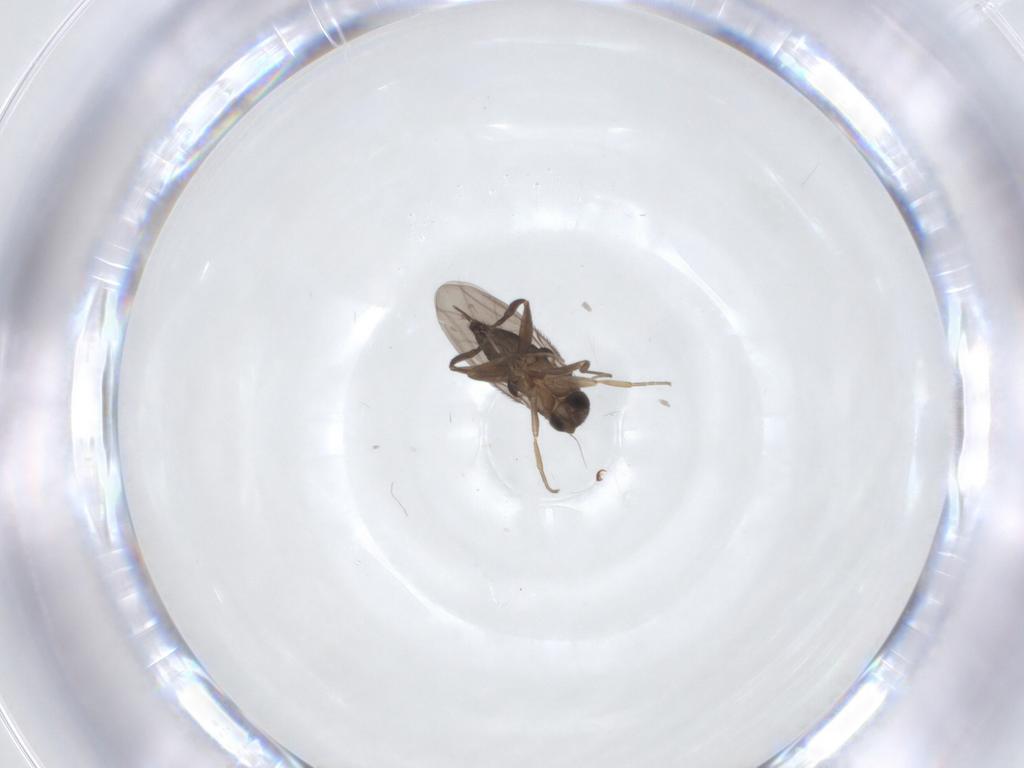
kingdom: Animalia
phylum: Arthropoda
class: Insecta
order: Diptera
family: Phoridae
